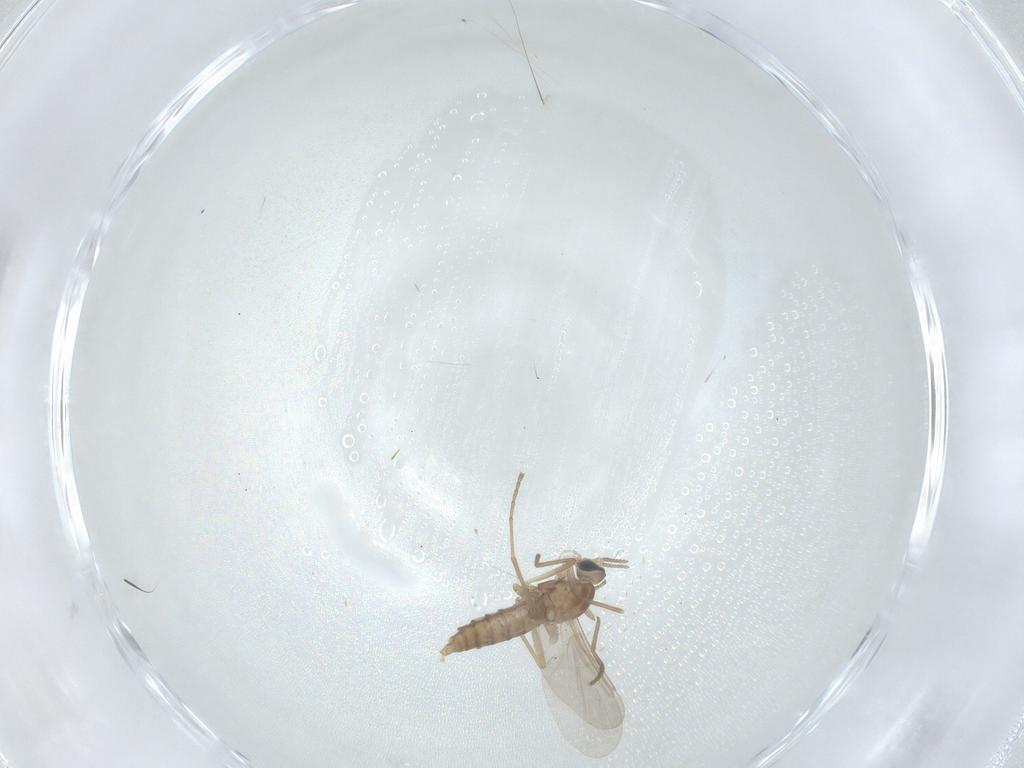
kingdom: Animalia
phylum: Arthropoda
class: Insecta
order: Diptera
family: Cecidomyiidae
